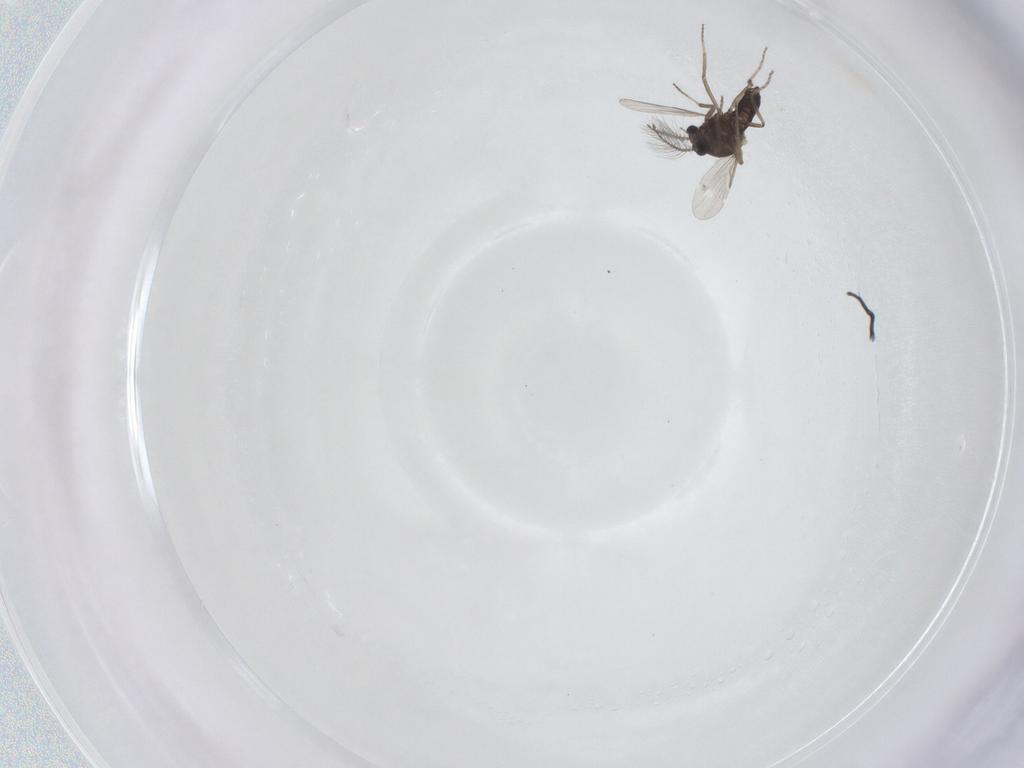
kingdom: Animalia
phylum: Arthropoda
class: Insecta
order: Diptera
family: Ceratopogonidae
